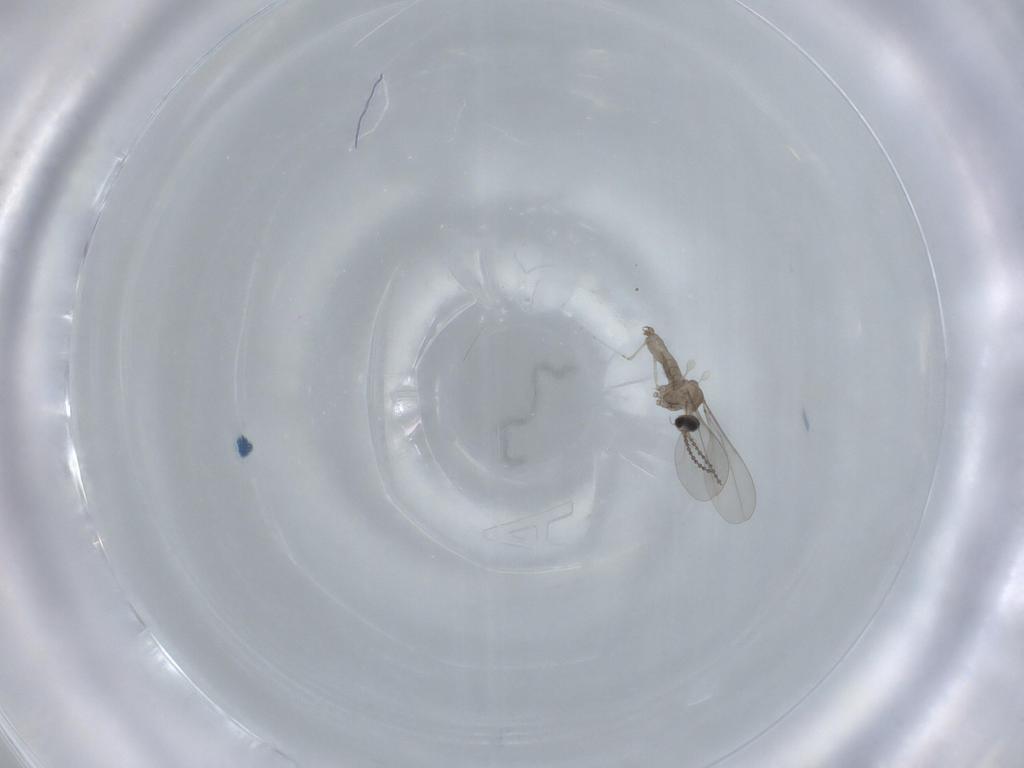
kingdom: Animalia
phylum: Arthropoda
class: Insecta
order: Diptera
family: Cecidomyiidae
